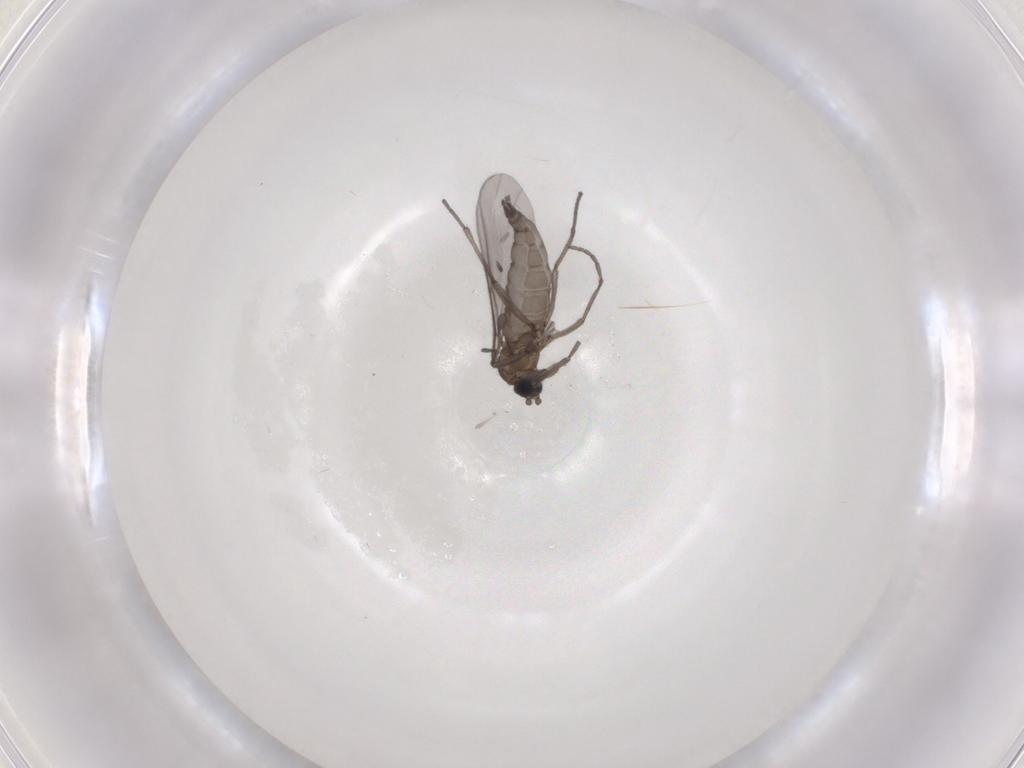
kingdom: Animalia
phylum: Arthropoda
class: Insecta
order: Diptera
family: Sciaridae
